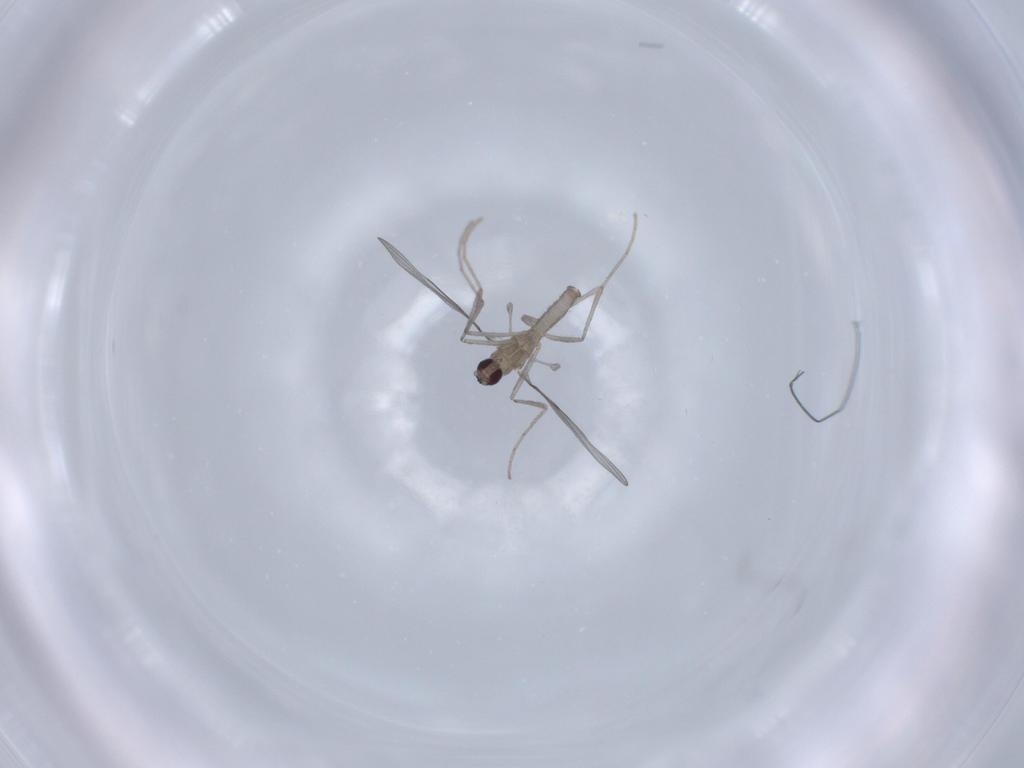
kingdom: Animalia
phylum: Arthropoda
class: Insecta
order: Diptera
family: Cecidomyiidae
